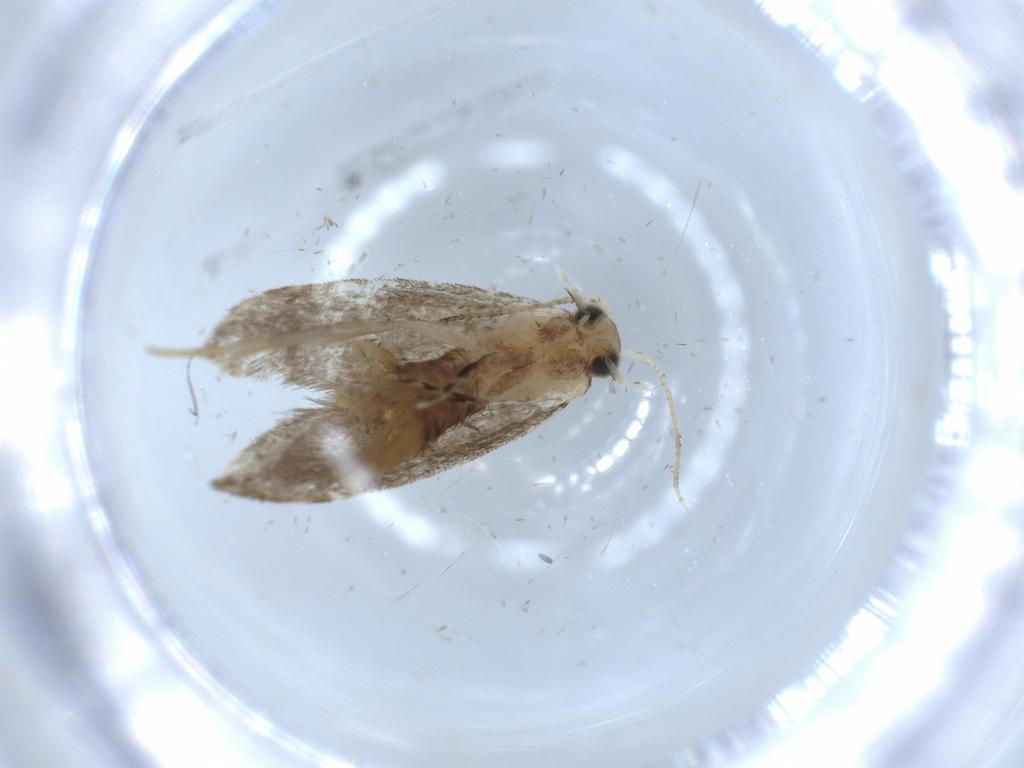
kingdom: Animalia
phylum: Arthropoda
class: Insecta
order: Lepidoptera
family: Tineidae
